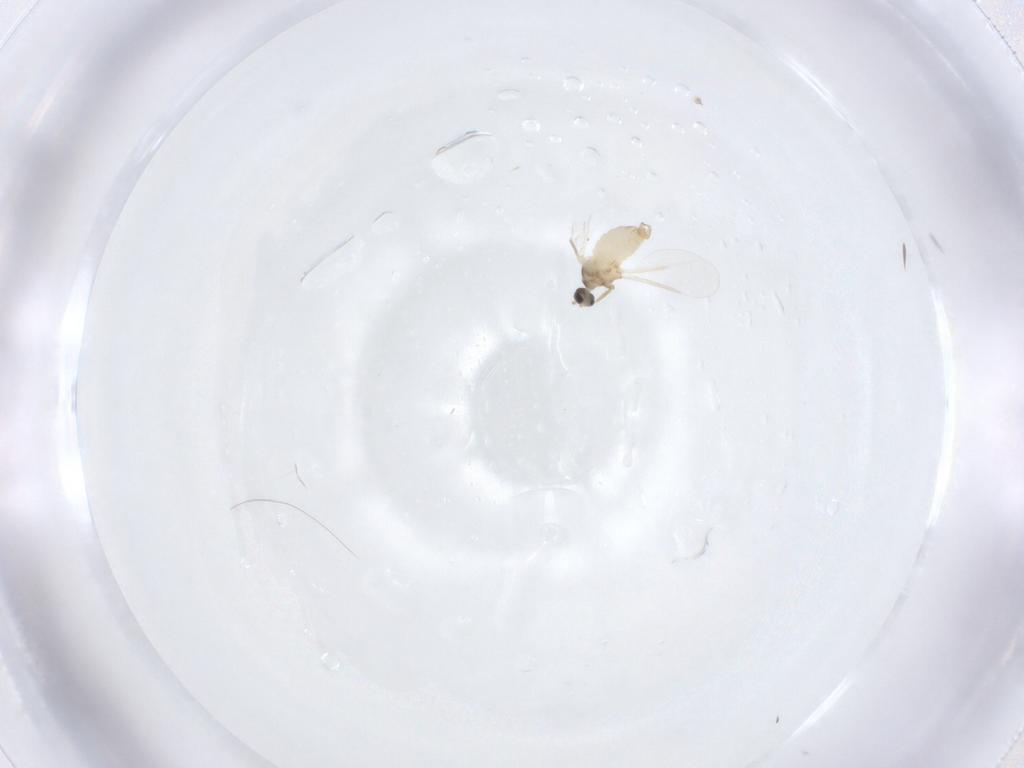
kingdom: Animalia
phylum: Arthropoda
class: Insecta
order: Diptera
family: Cecidomyiidae
